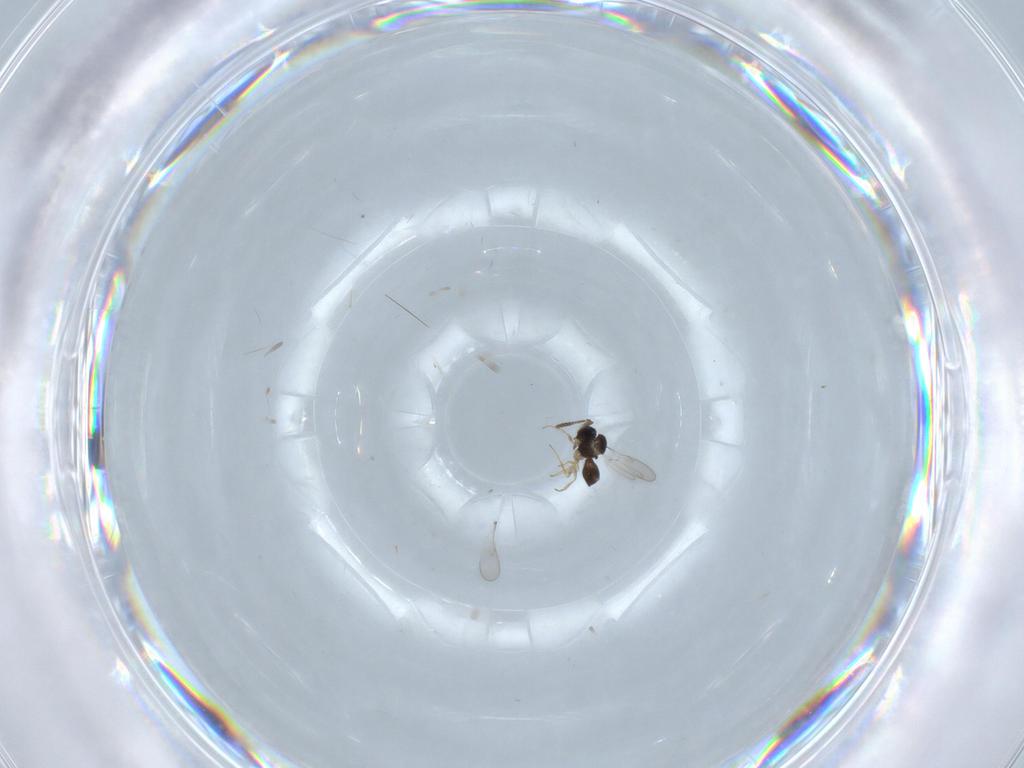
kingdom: Animalia
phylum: Arthropoda
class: Insecta
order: Hymenoptera
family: Scelionidae
